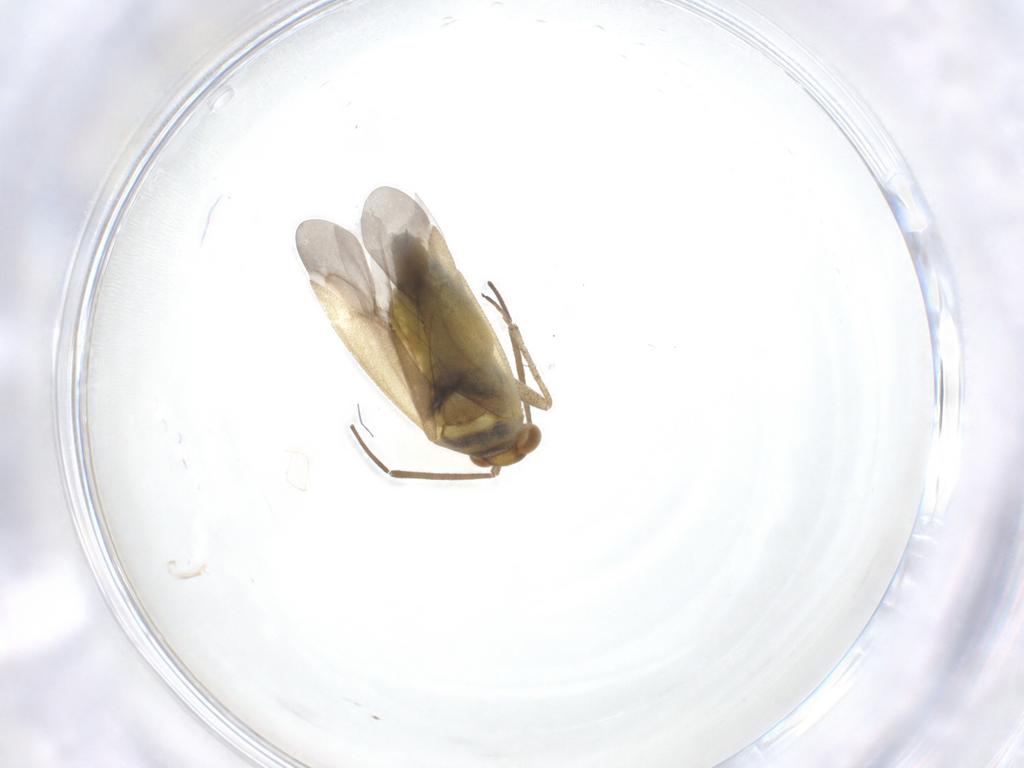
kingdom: Animalia
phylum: Arthropoda
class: Insecta
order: Hemiptera
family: Miridae
